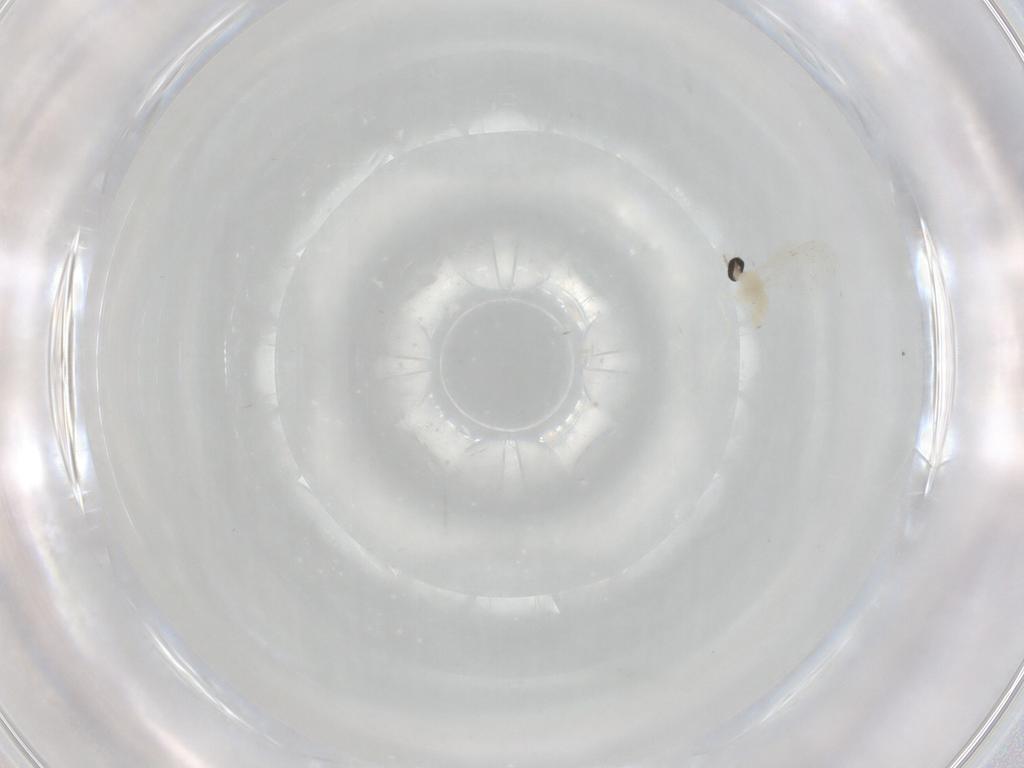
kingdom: Animalia
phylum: Arthropoda
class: Insecta
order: Diptera
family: Cecidomyiidae
